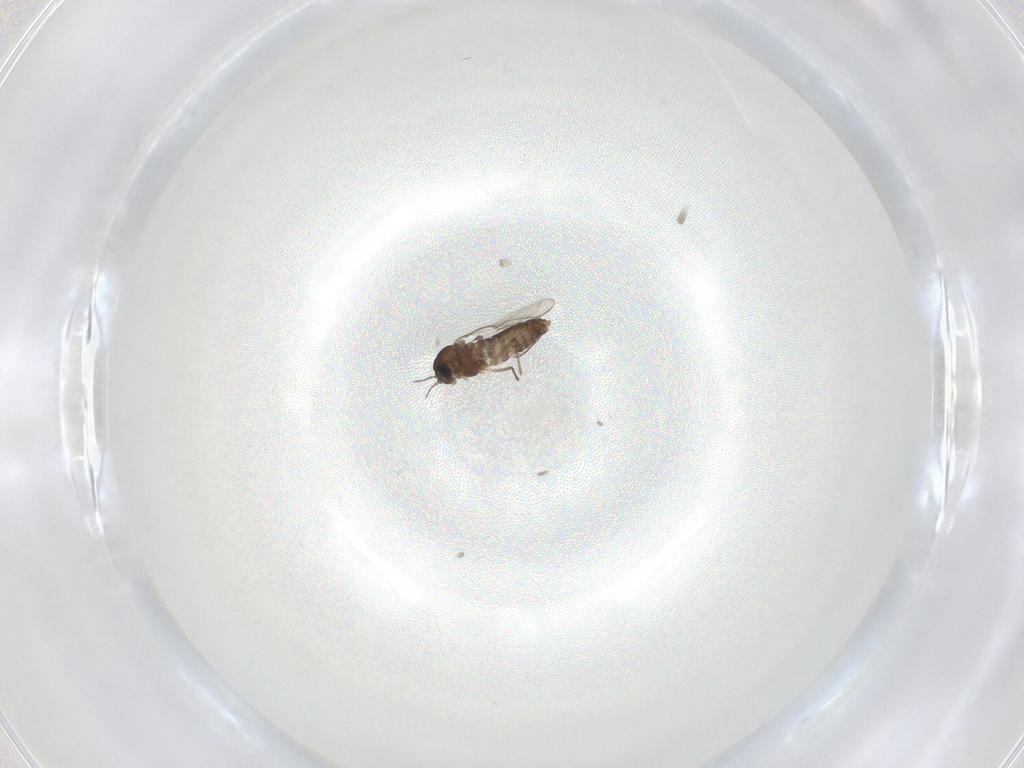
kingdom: Animalia
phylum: Arthropoda
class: Insecta
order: Diptera
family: Chironomidae
